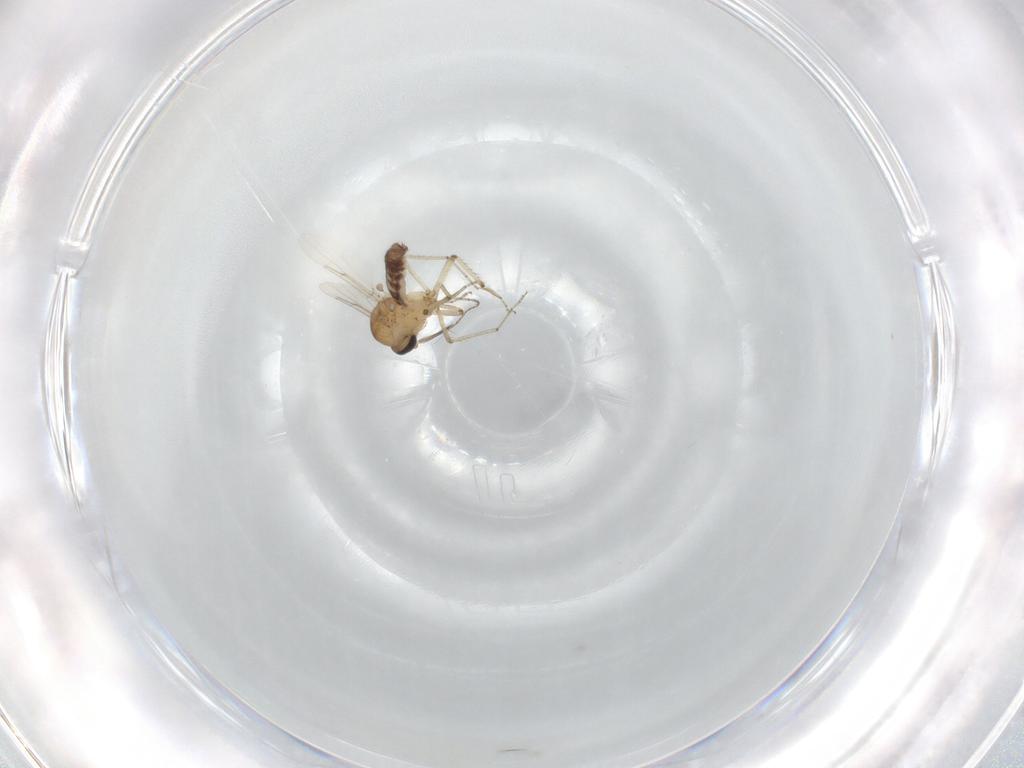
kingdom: Animalia
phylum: Arthropoda
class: Insecta
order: Diptera
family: Ceratopogonidae
